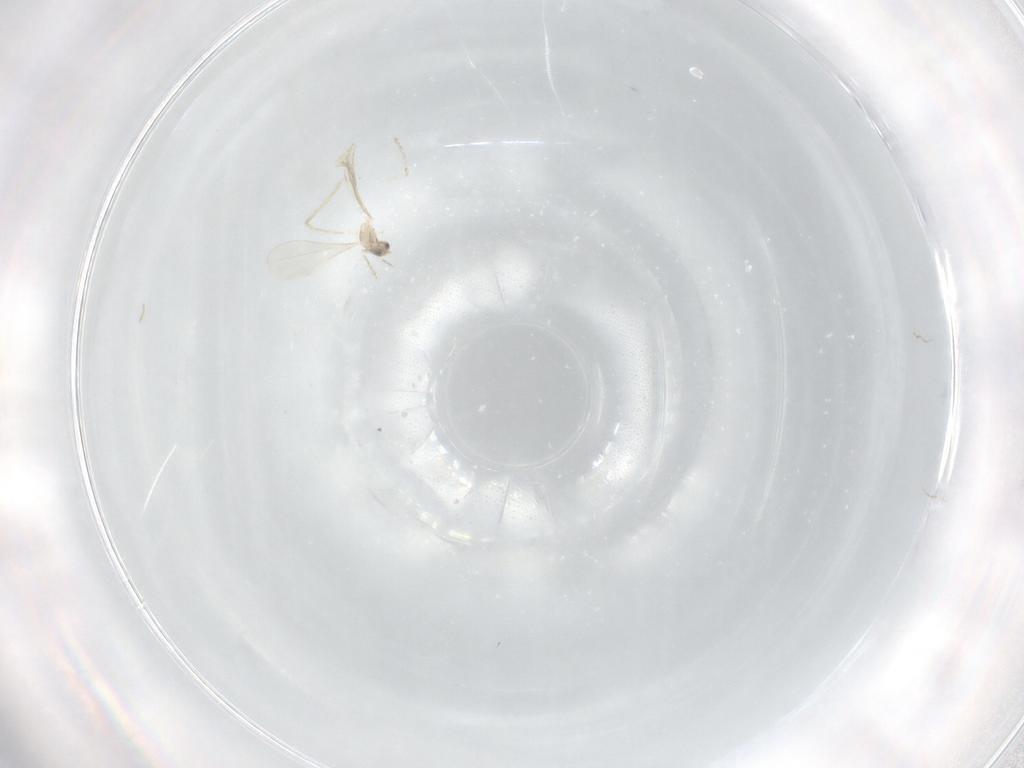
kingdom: Animalia
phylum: Arthropoda
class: Insecta
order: Diptera
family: Cecidomyiidae
